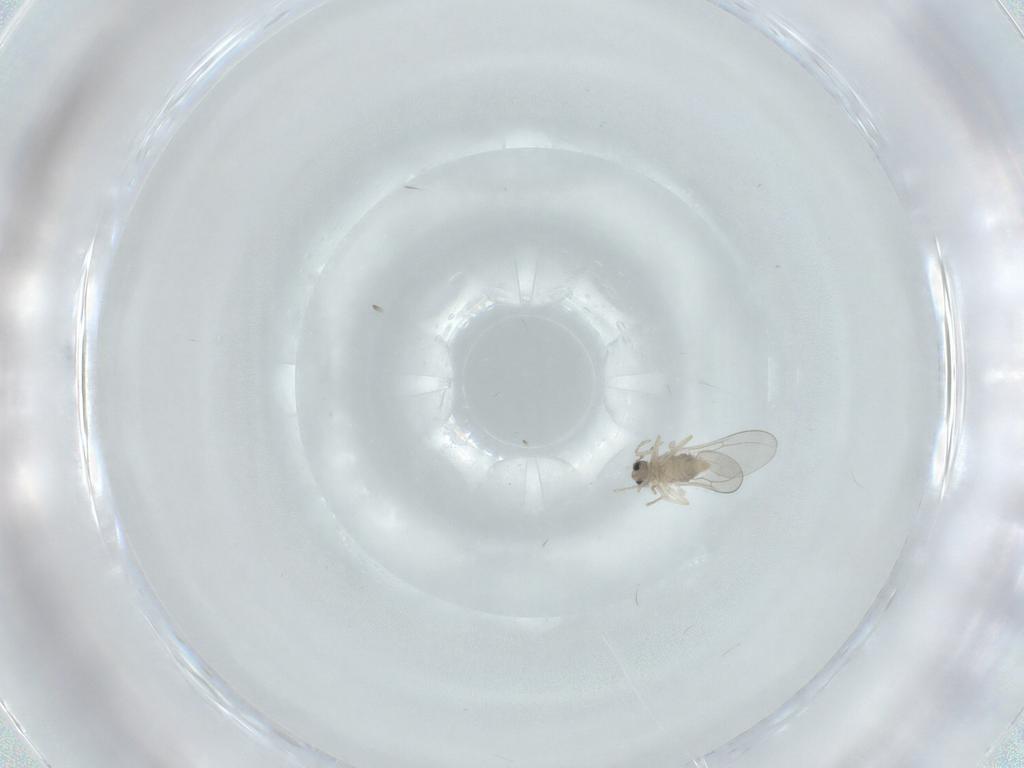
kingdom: Animalia
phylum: Arthropoda
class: Insecta
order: Diptera
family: Cecidomyiidae
